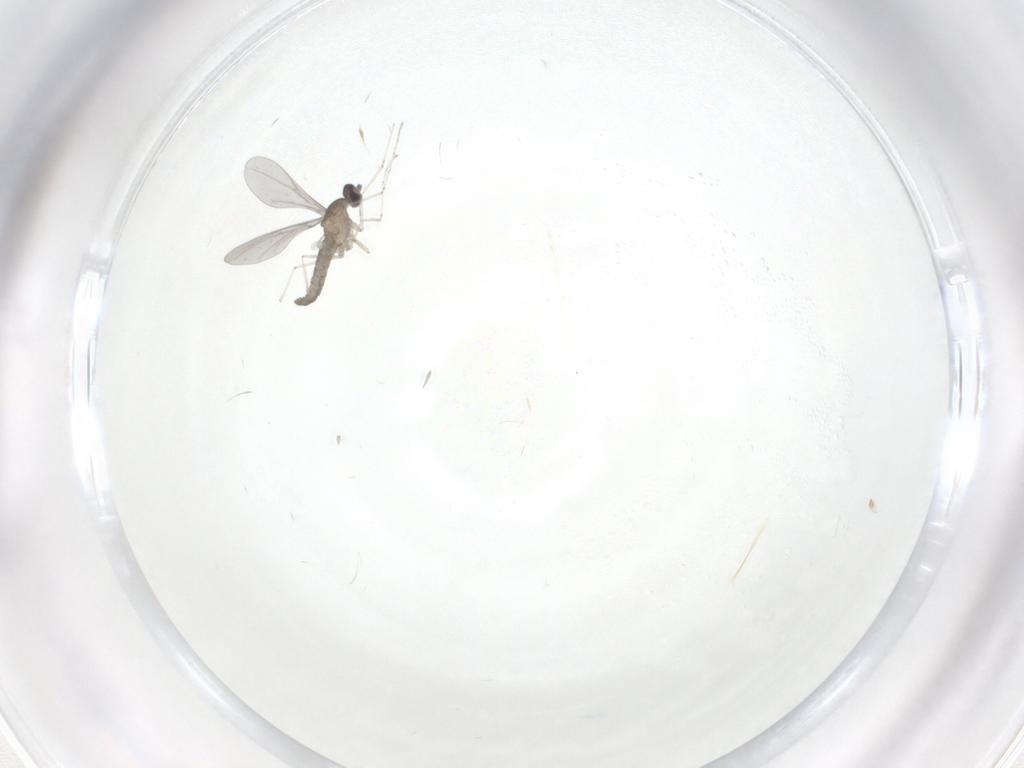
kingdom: Animalia
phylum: Arthropoda
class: Insecta
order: Diptera
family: Cecidomyiidae
